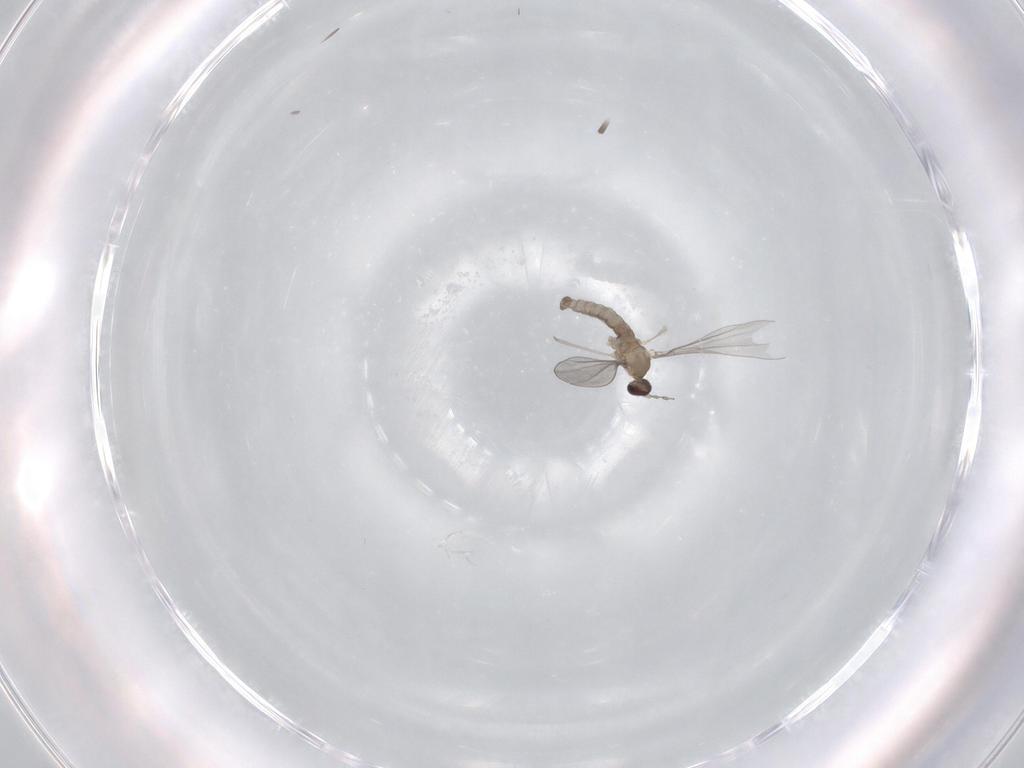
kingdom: Animalia
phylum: Arthropoda
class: Insecta
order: Diptera
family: Cecidomyiidae
